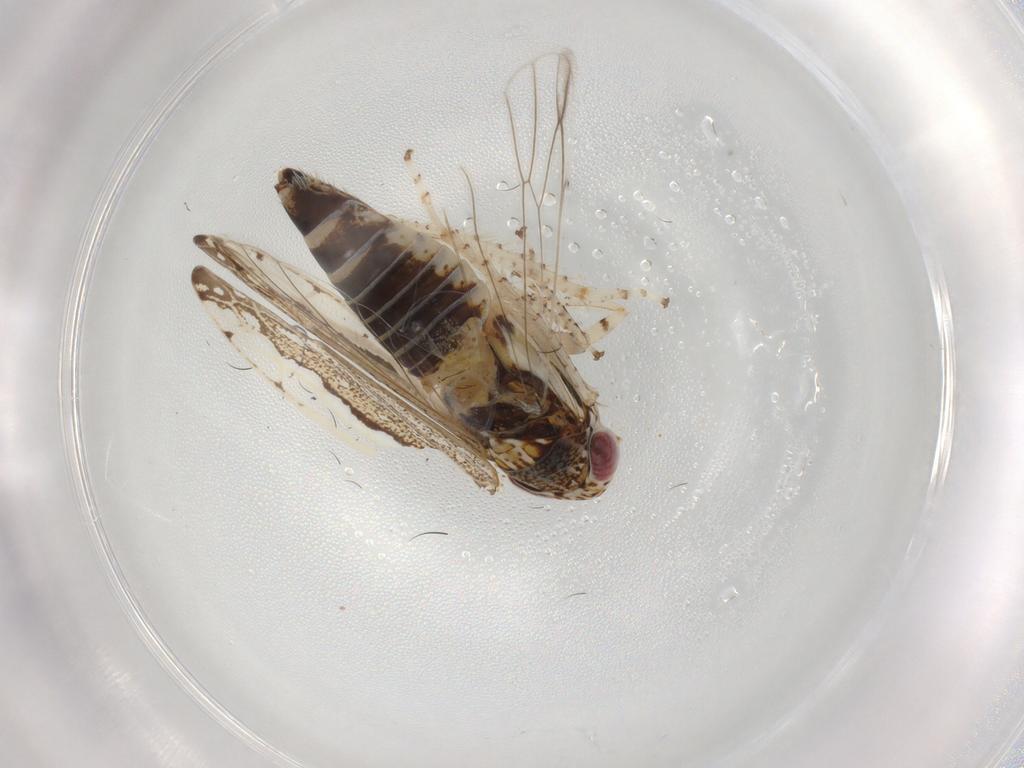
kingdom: Animalia
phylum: Arthropoda
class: Insecta
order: Hemiptera
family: Cicadellidae
